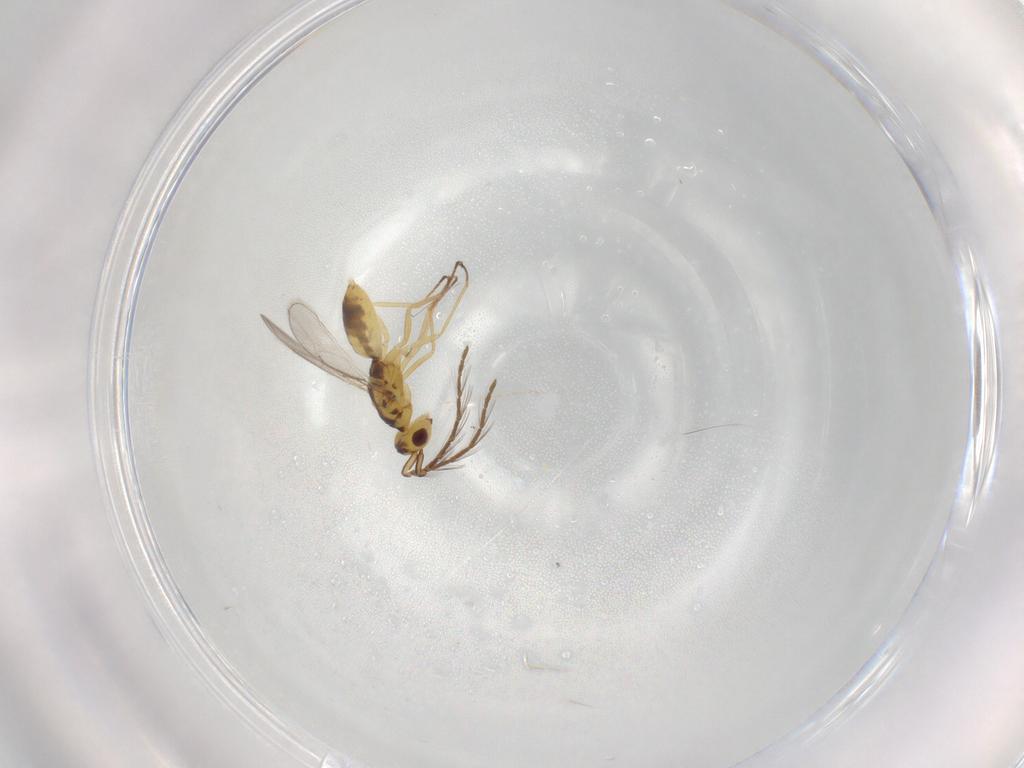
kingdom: Animalia
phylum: Arthropoda
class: Insecta
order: Hymenoptera
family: Eulophidae
